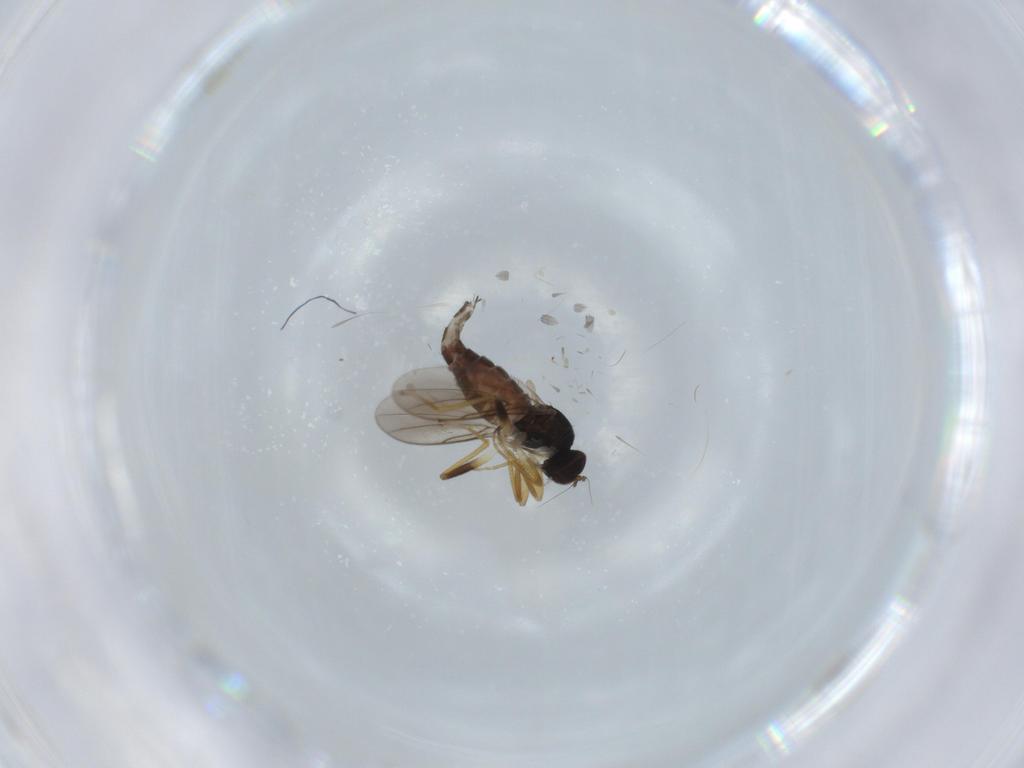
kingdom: Animalia
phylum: Arthropoda
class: Insecta
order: Diptera
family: Hybotidae
